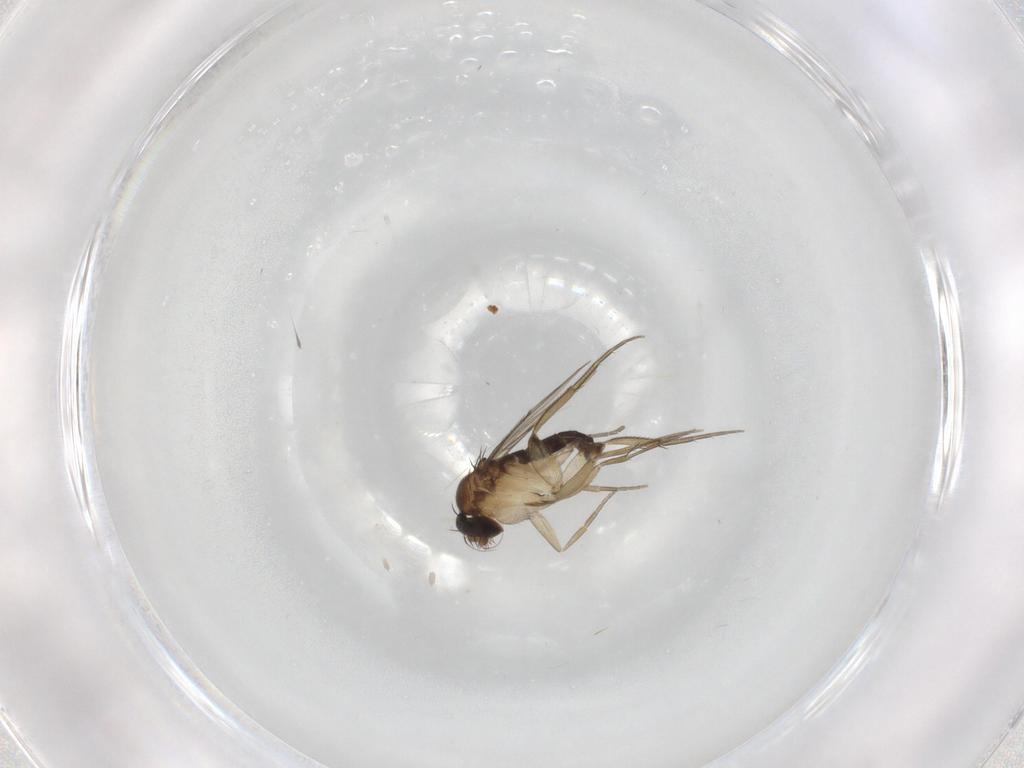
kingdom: Animalia
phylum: Arthropoda
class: Insecta
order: Diptera
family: Phoridae
